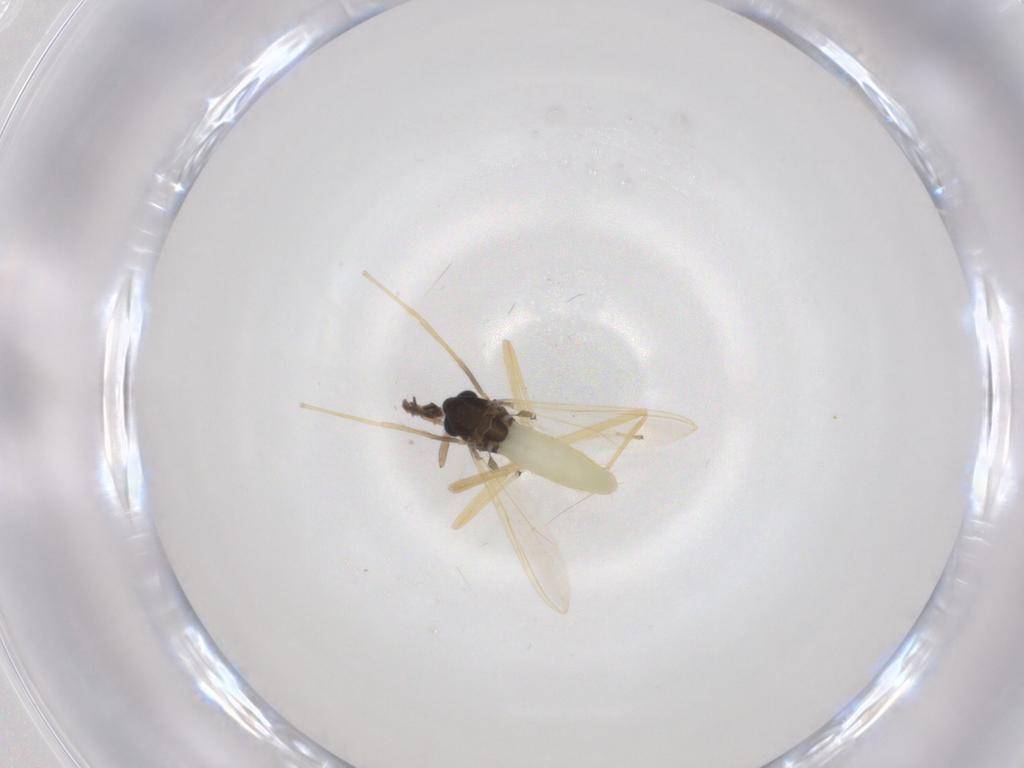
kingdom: Animalia
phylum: Arthropoda
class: Insecta
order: Diptera
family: Chironomidae
